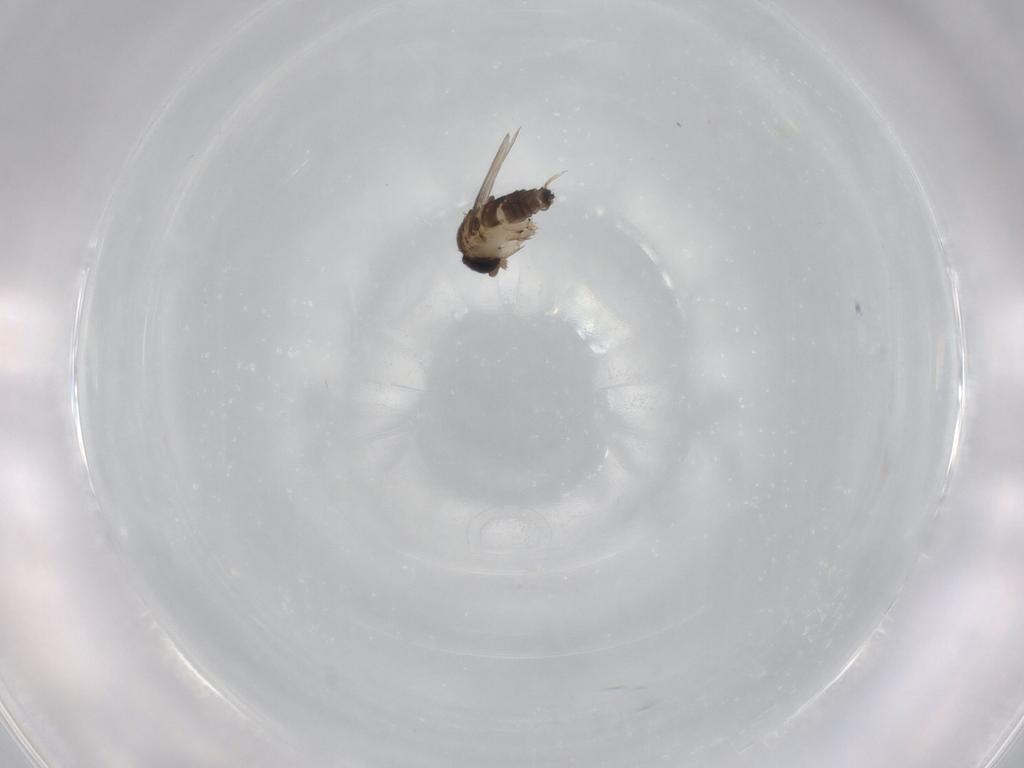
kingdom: Animalia
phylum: Arthropoda
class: Insecta
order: Diptera
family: Phoridae
